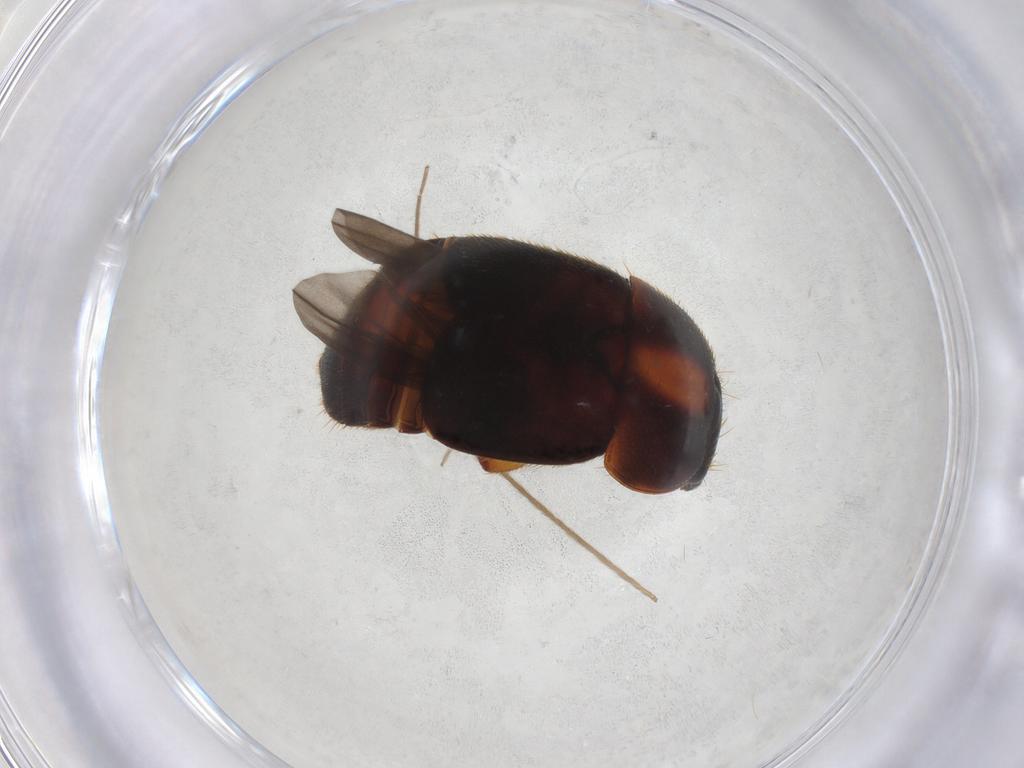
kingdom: Animalia
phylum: Arthropoda
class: Insecta
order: Coleoptera
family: Nitidulidae
